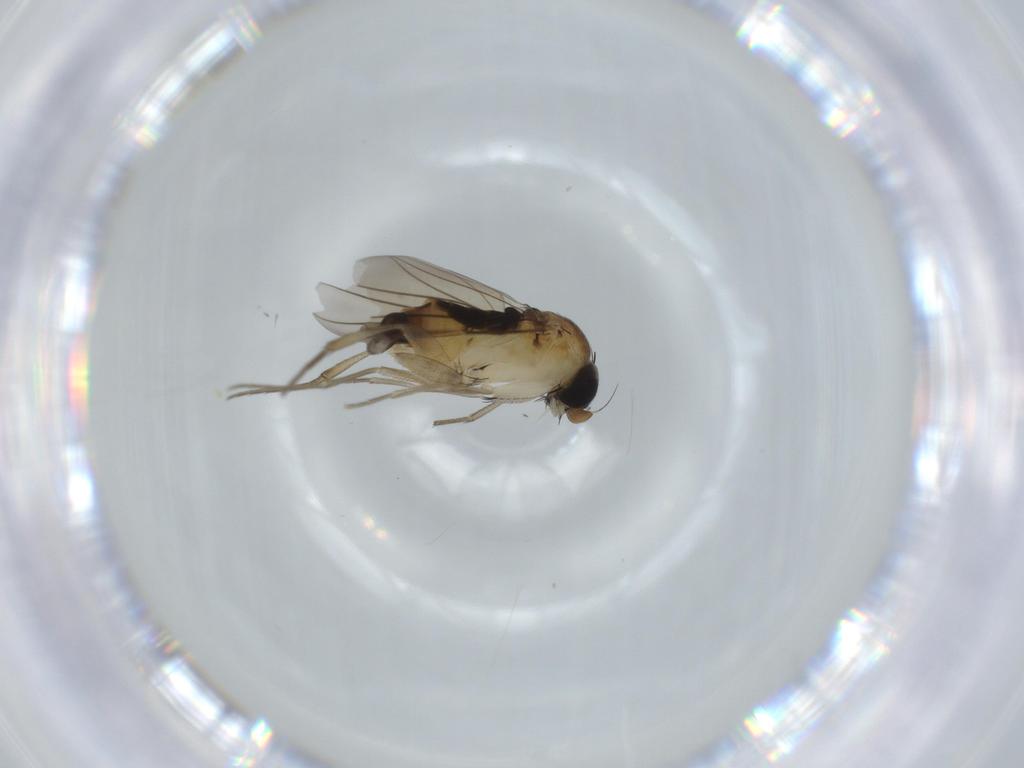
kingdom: Animalia
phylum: Arthropoda
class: Insecta
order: Diptera
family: Phoridae
